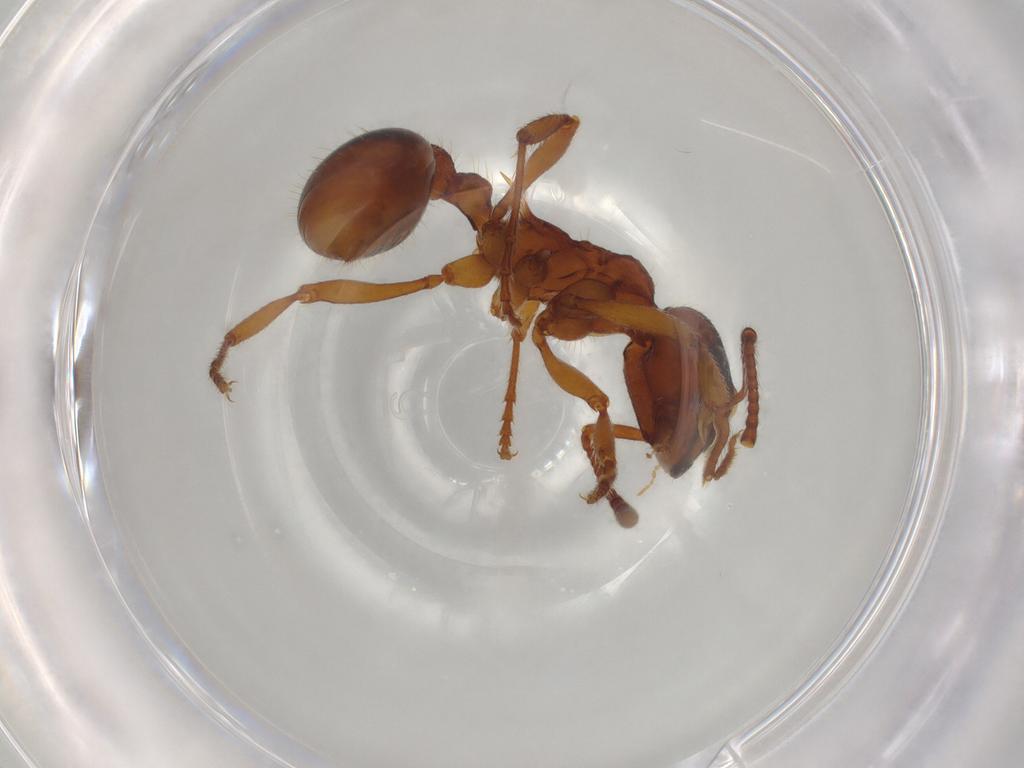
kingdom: Animalia
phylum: Arthropoda
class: Insecta
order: Hymenoptera
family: Formicidae
